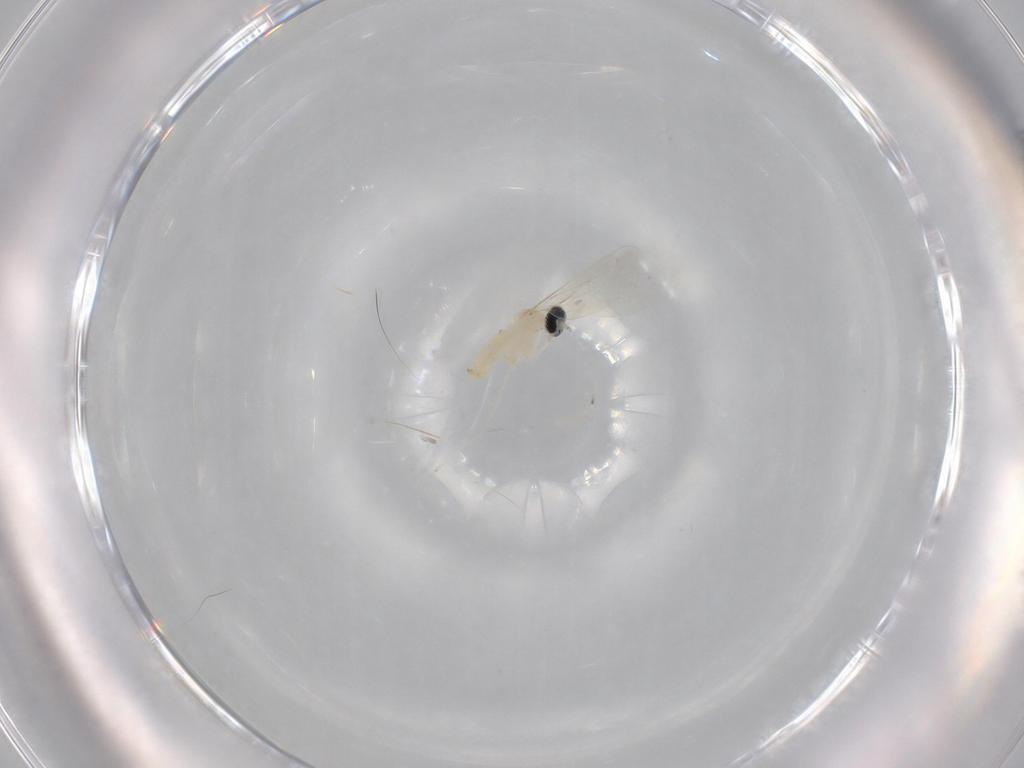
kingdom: Animalia
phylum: Arthropoda
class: Insecta
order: Diptera
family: Cecidomyiidae
